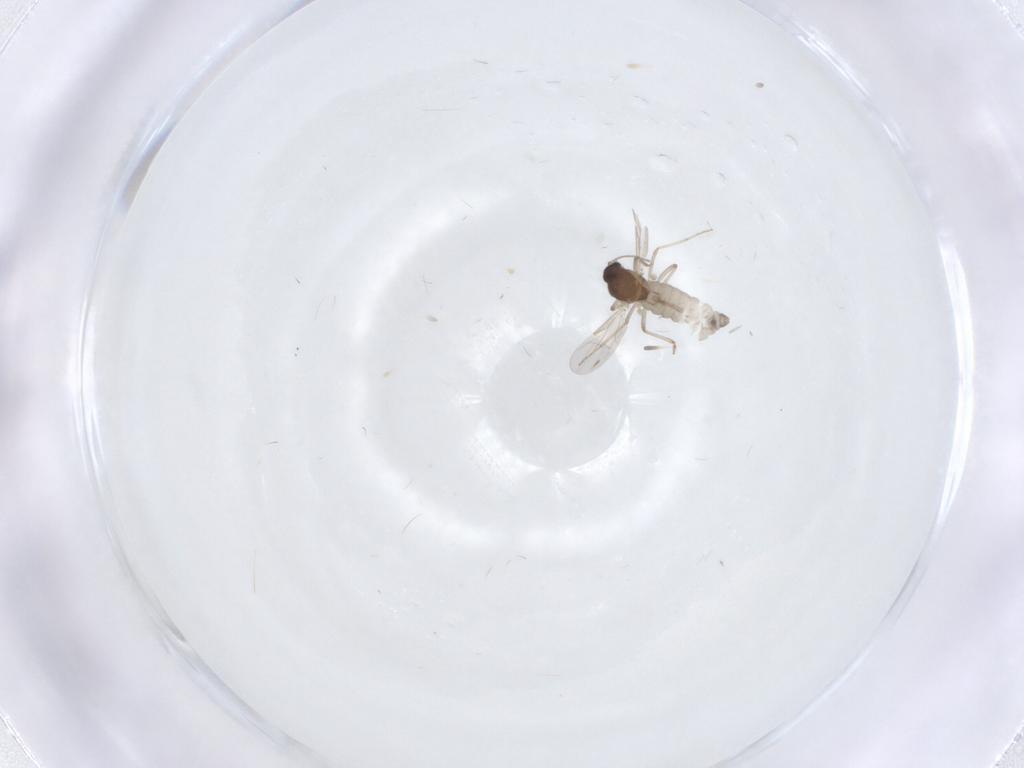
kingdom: Animalia
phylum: Arthropoda
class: Insecta
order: Diptera
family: Ceratopogonidae
